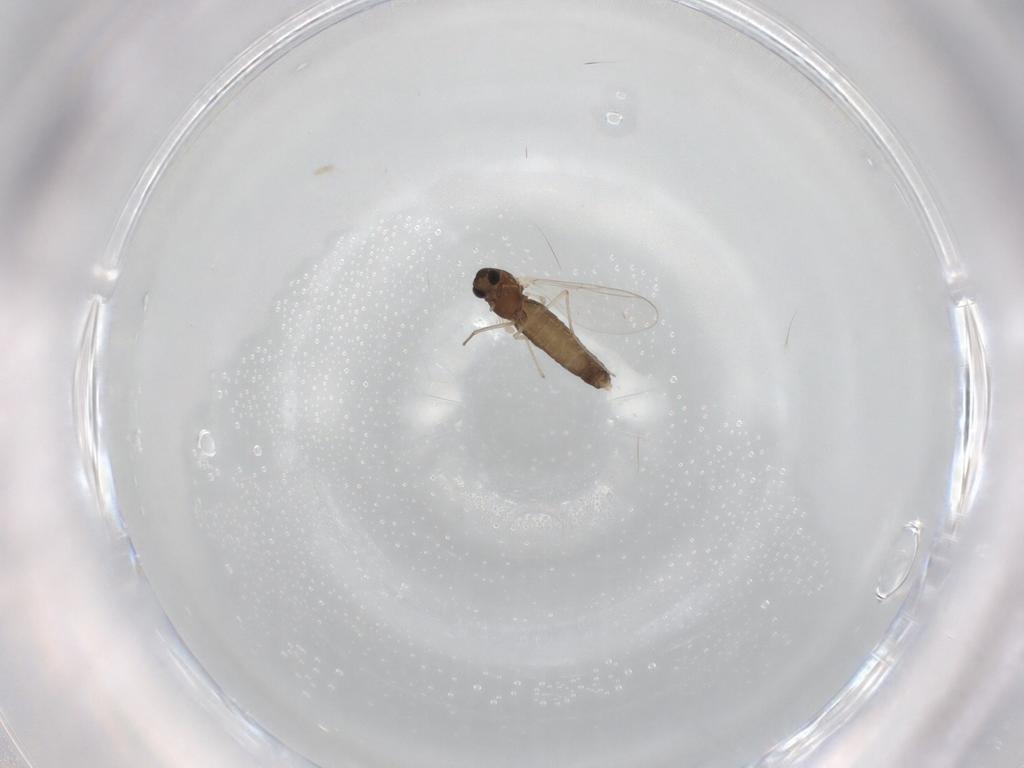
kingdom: Animalia
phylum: Arthropoda
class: Insecta
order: Diptera
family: Chironomidae
